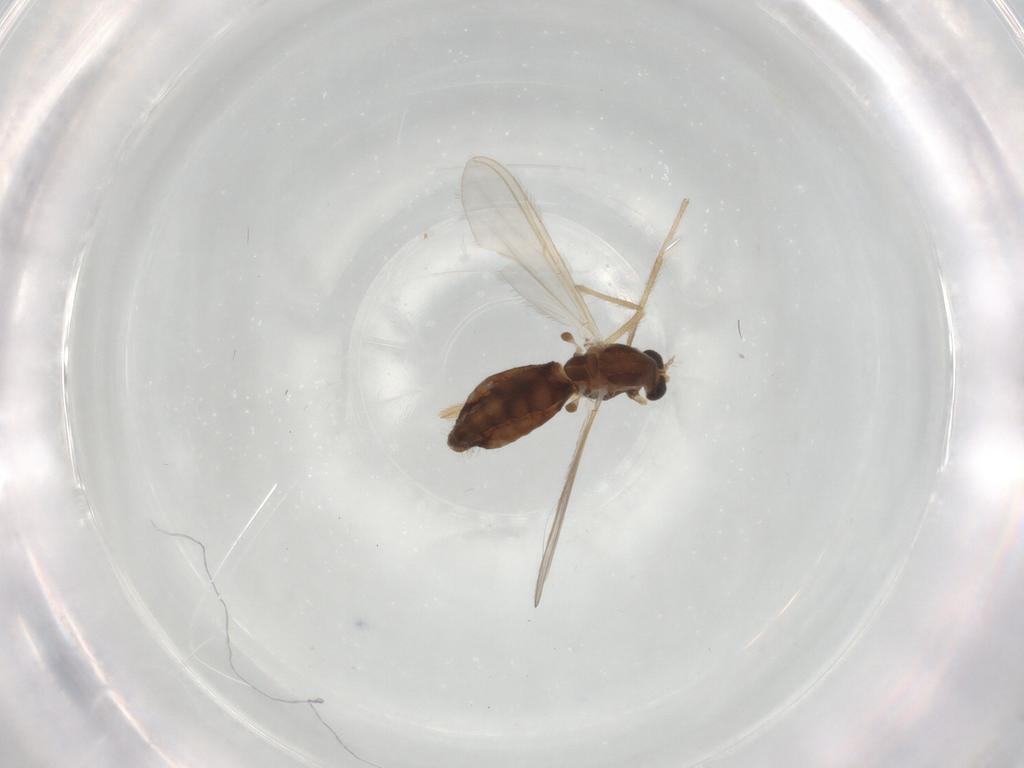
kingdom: Animalia
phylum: Arthropoda
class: Insecta
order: Diptera
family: Chironomidae
